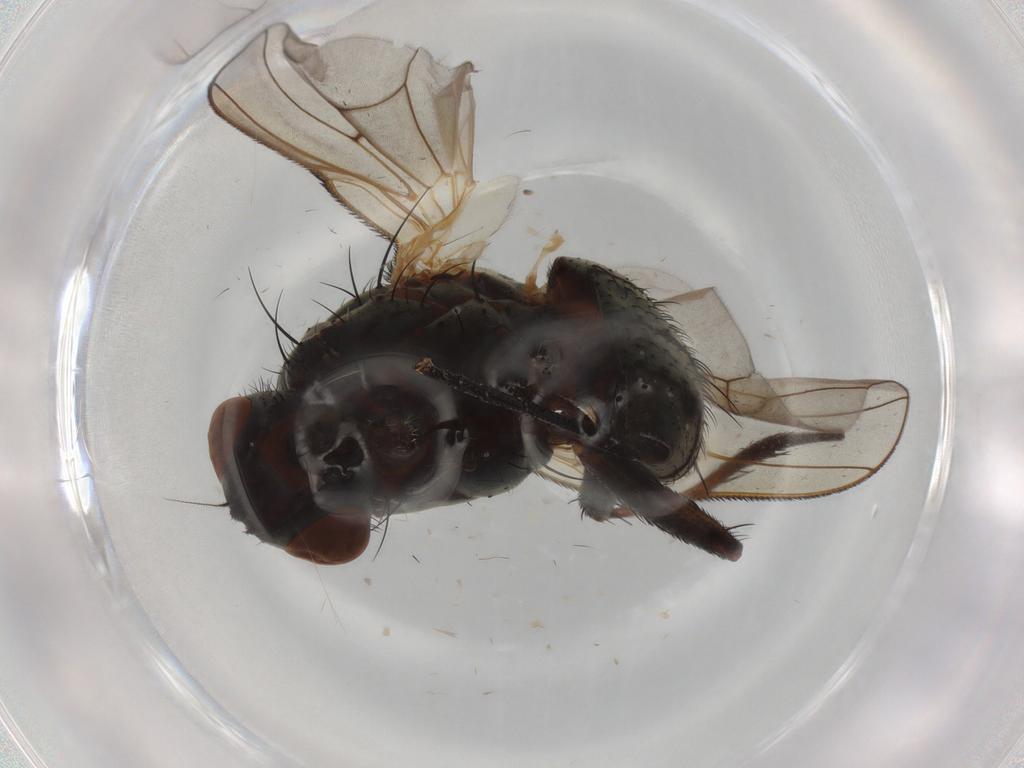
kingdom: Animalia
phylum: Arthropoda
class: Insecta
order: Diptera
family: Anthomyiidae
